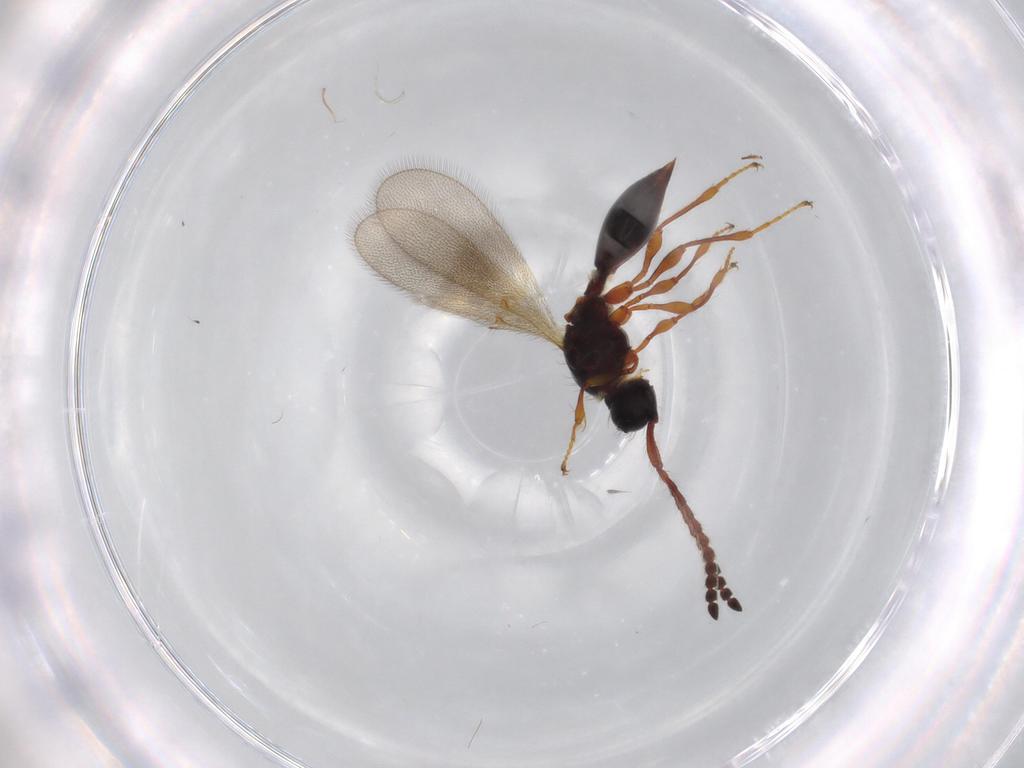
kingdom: Animalia
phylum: Arthropoda
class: Insecta
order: Hymenoptera
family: Diapriidae
